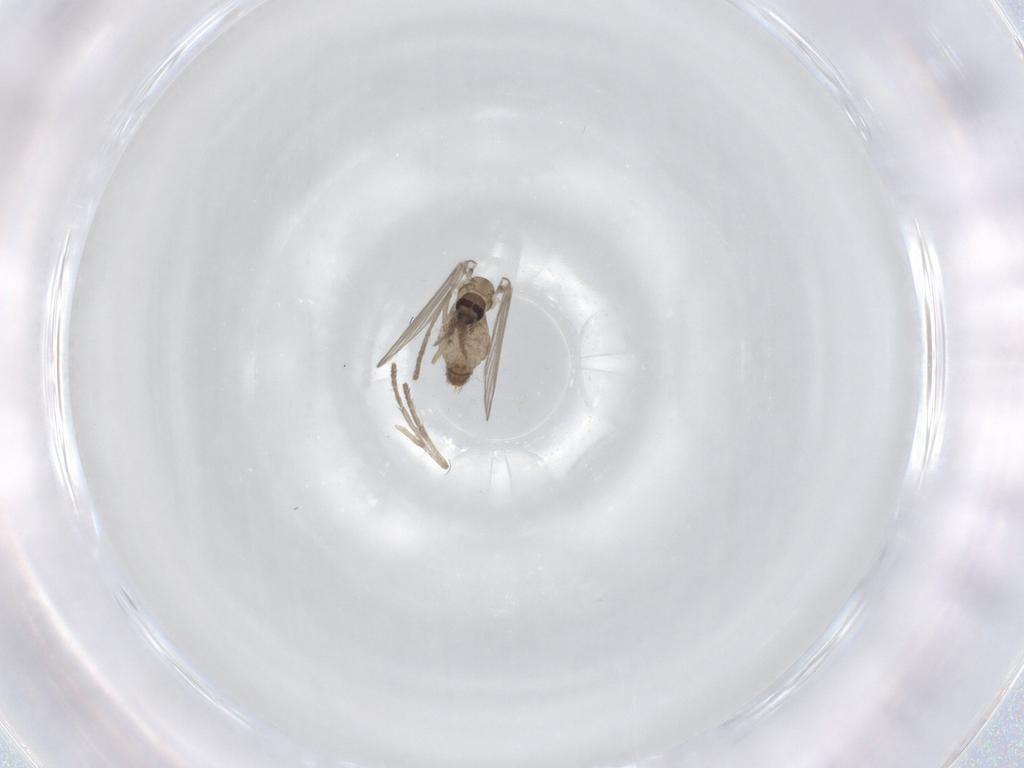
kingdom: Animalia
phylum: Arthropoda
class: Insecta
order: Diptera
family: Psychodidae
